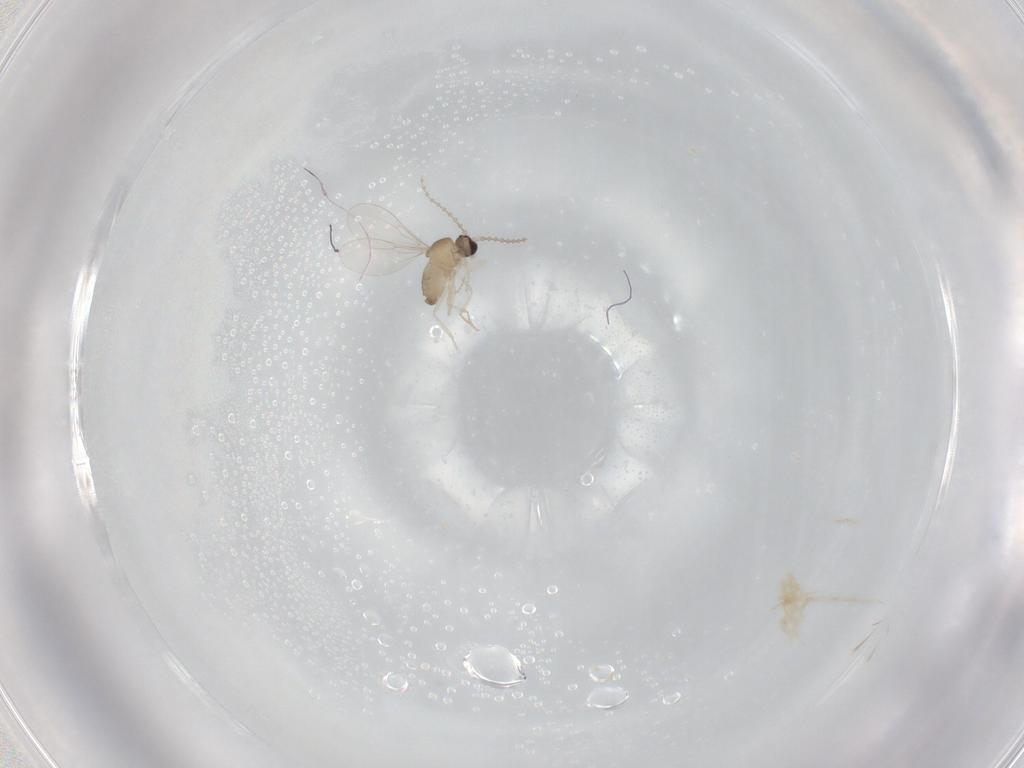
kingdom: Animalia
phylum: Arthropoda
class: Insecta
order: Diptera
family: Cecidomyiidae
